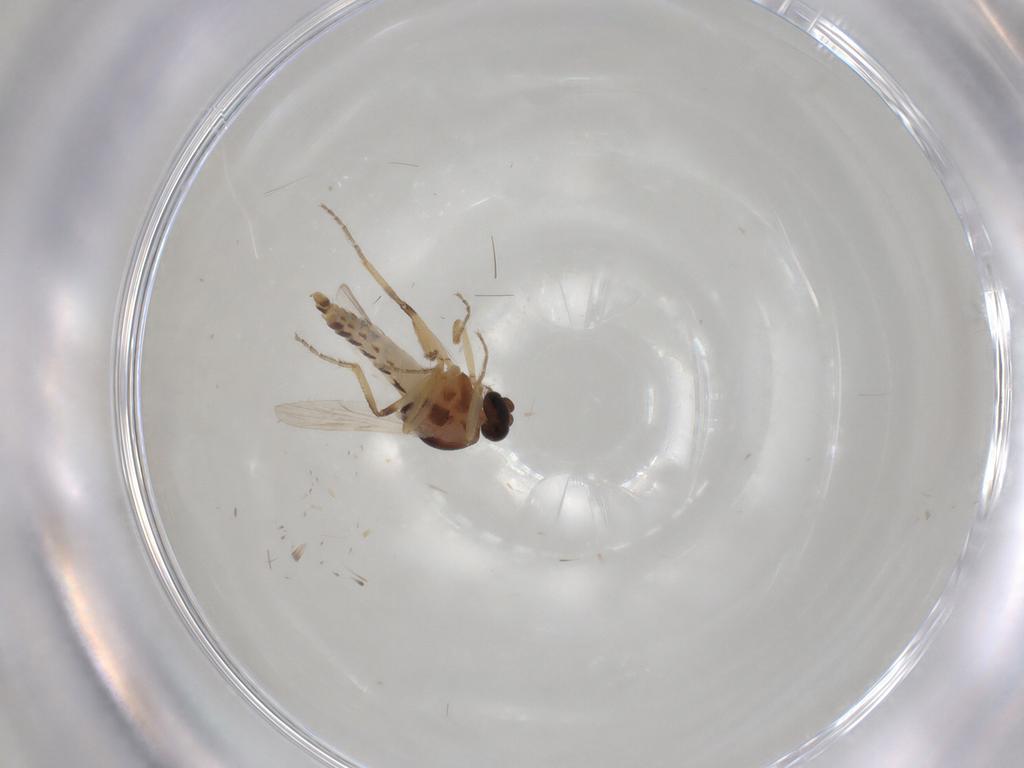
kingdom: Animalia
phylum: Arthropoda
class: Insecta
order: Diptera
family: Ceratopogonidae
